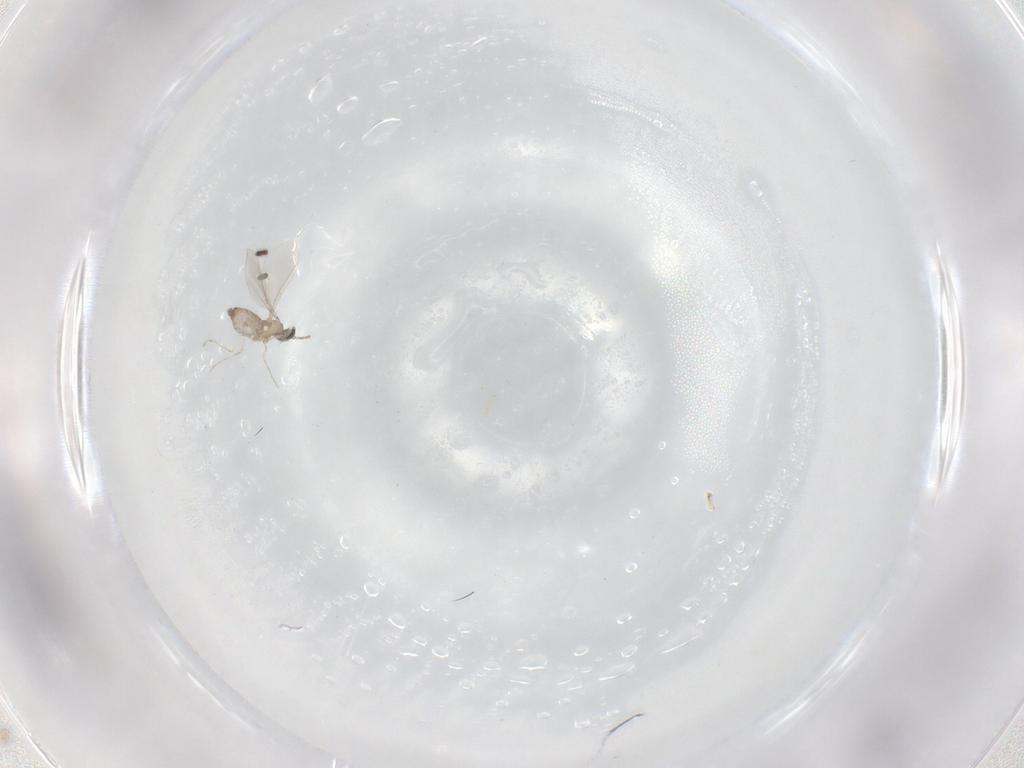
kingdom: Animalia
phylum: Arthropoda
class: Insecta
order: Diptera
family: Cecidomyiidae
